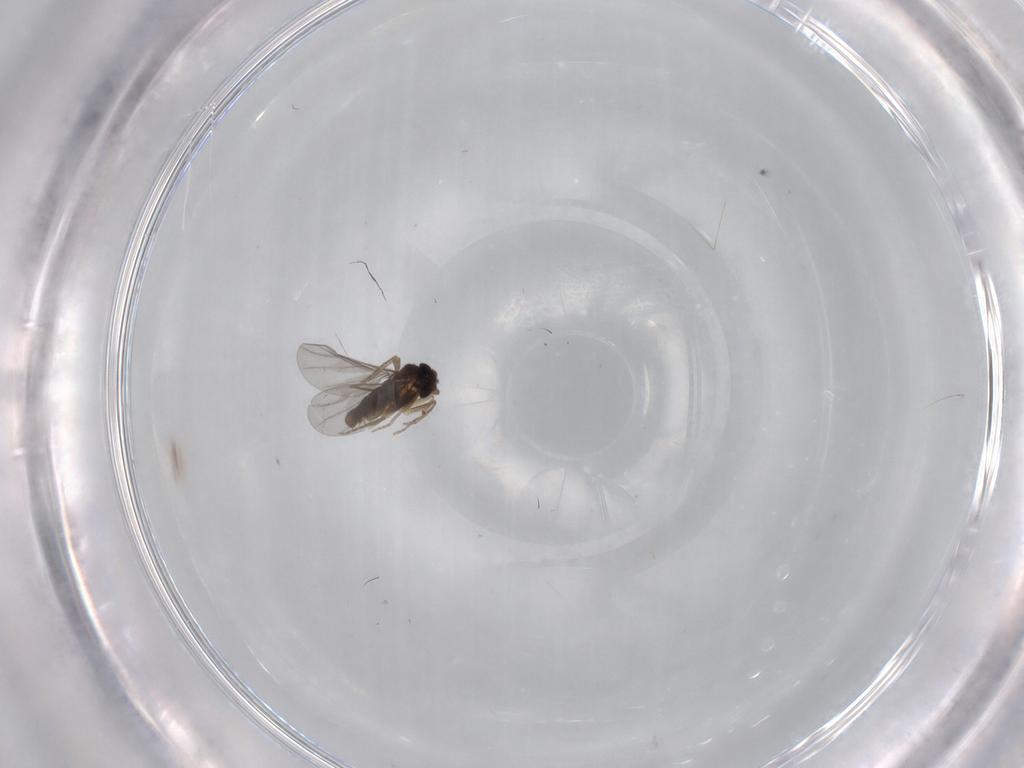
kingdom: Animalia
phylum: Arthropoda
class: Insecta
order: Diptera
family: Limoniidae
